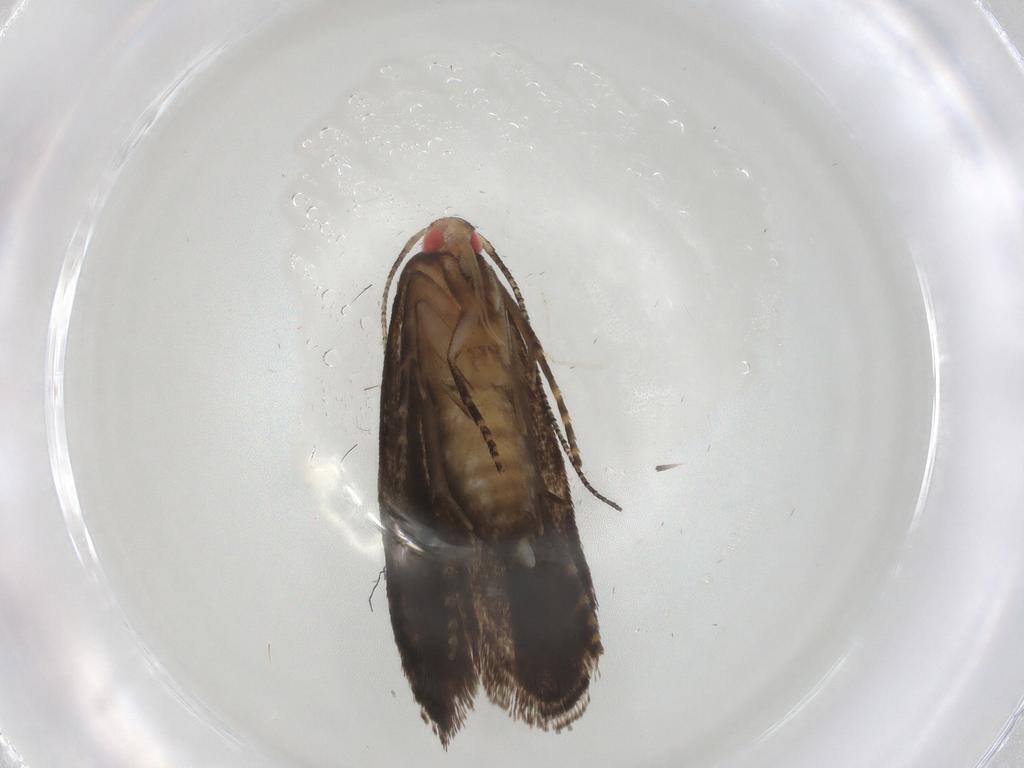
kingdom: Animalia
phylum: Arthropoda
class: Insecta
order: Lepidoptera
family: Gelechiidae
